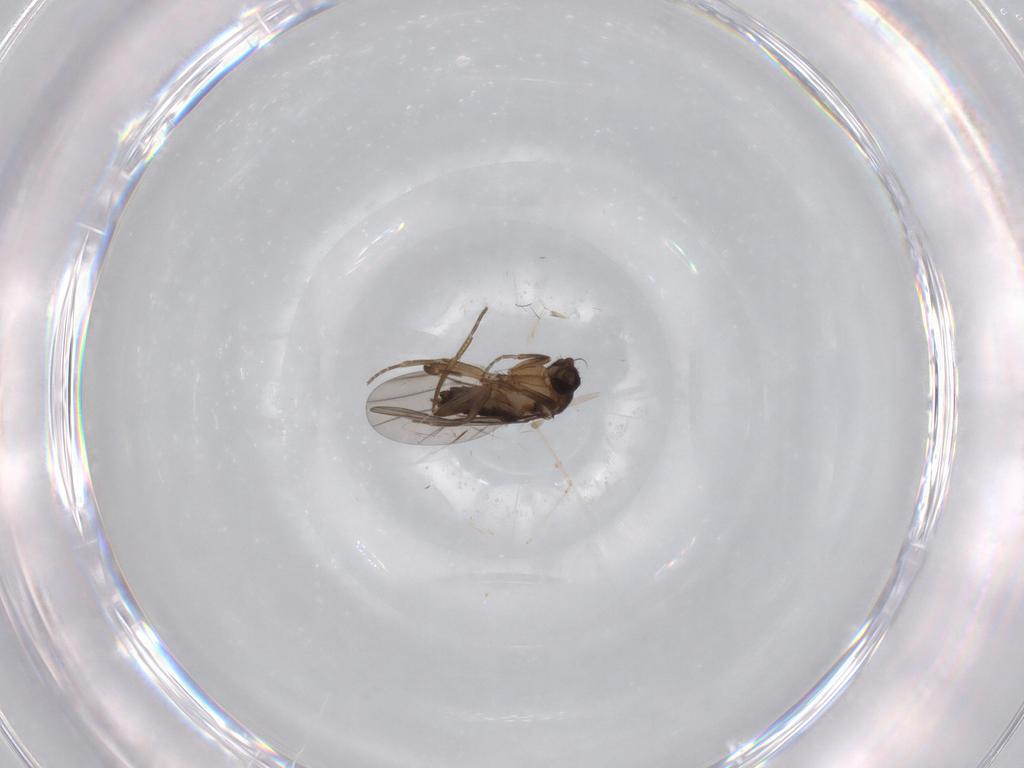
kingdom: Animalia
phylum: Arthropoda
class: Insecta
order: Diptera
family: Cecidomyiidae
